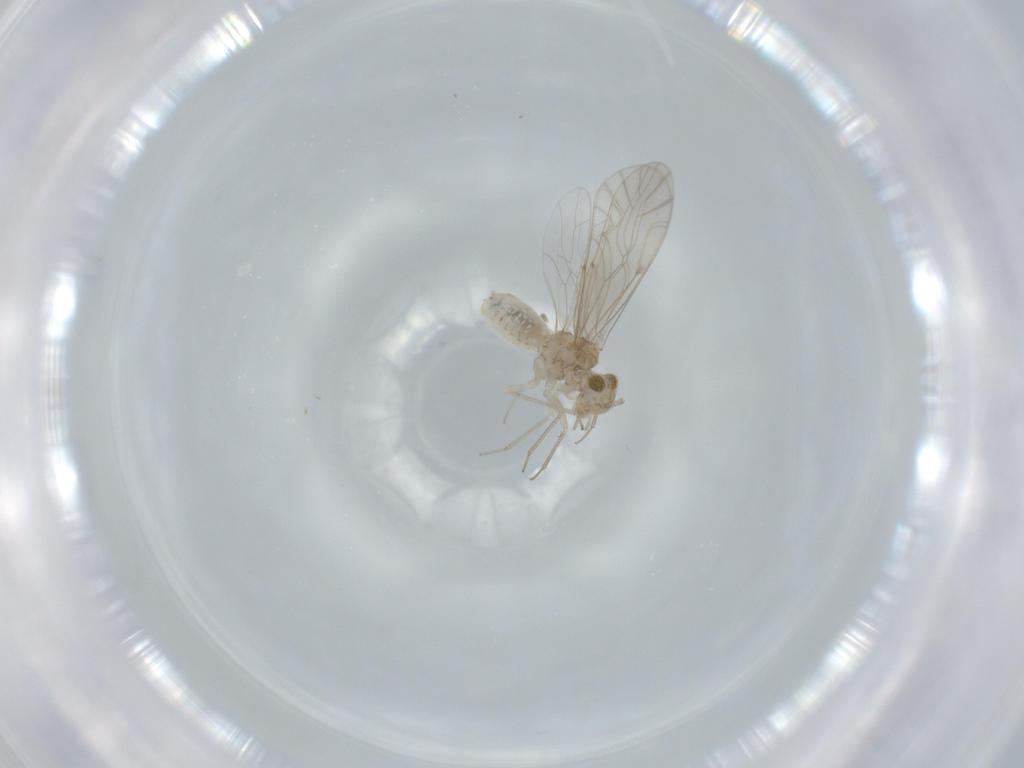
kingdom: Animalia
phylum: Arthropoda
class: Insecta
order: Psocodea
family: Lachesillidae
